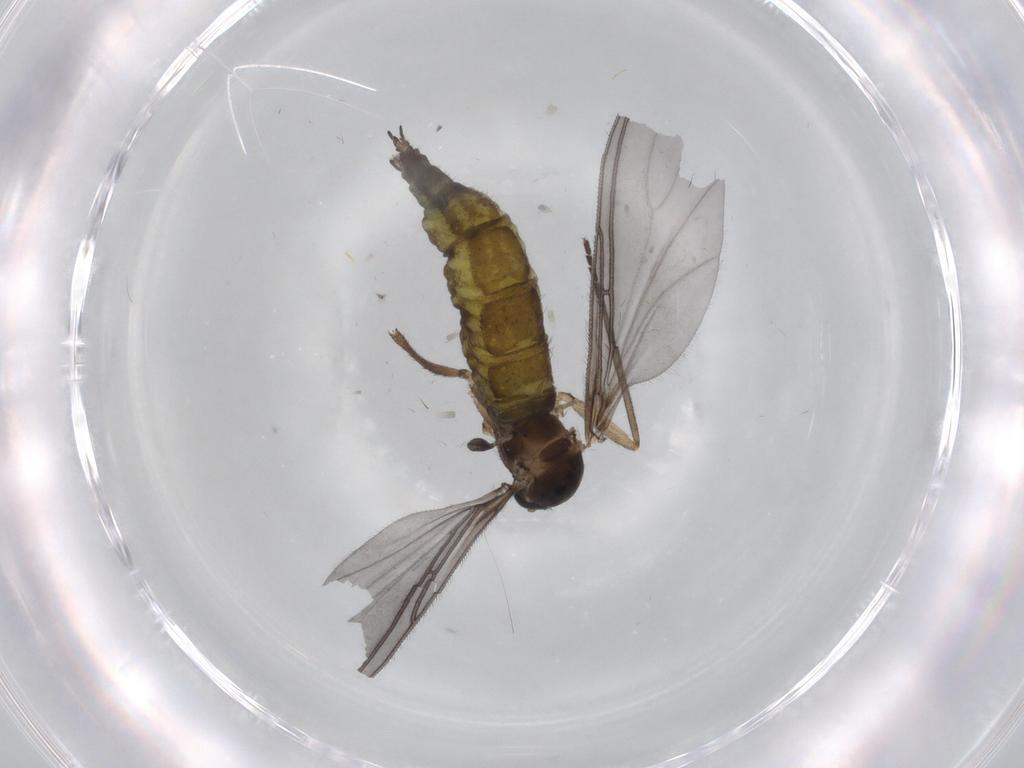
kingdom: Animalia
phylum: Arthropoda
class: Insecta
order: Diptera
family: Sciaridae
